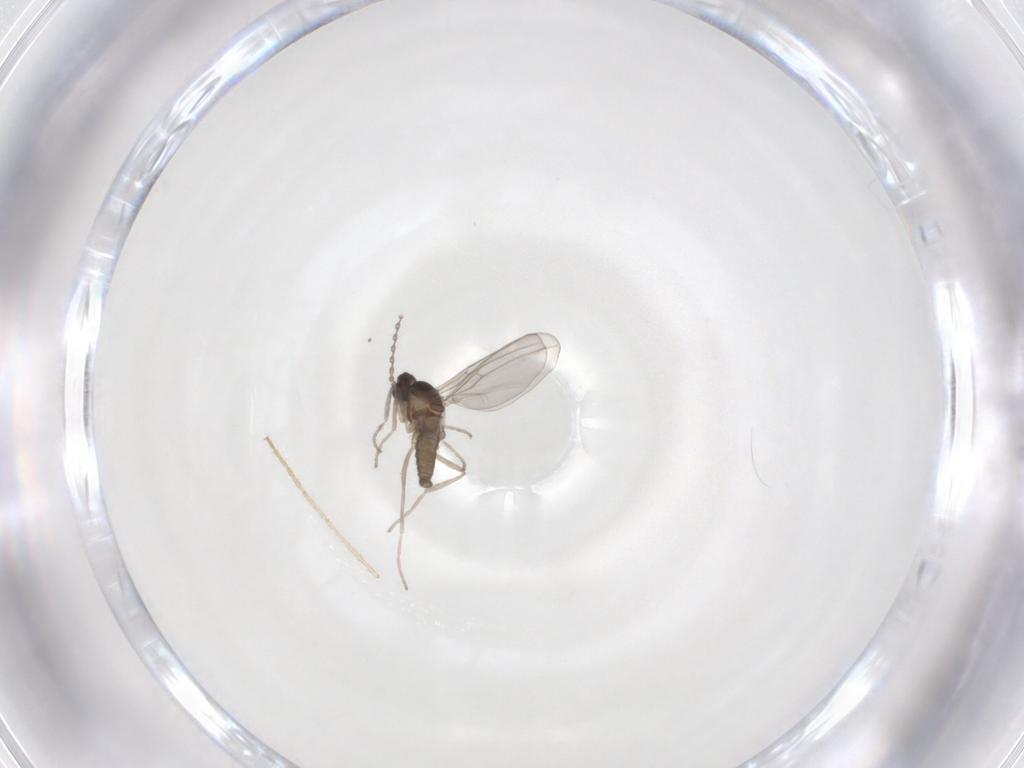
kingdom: Animalia
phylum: Arthropoda
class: Insecta
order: Diptera
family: Cecidomyiidae
